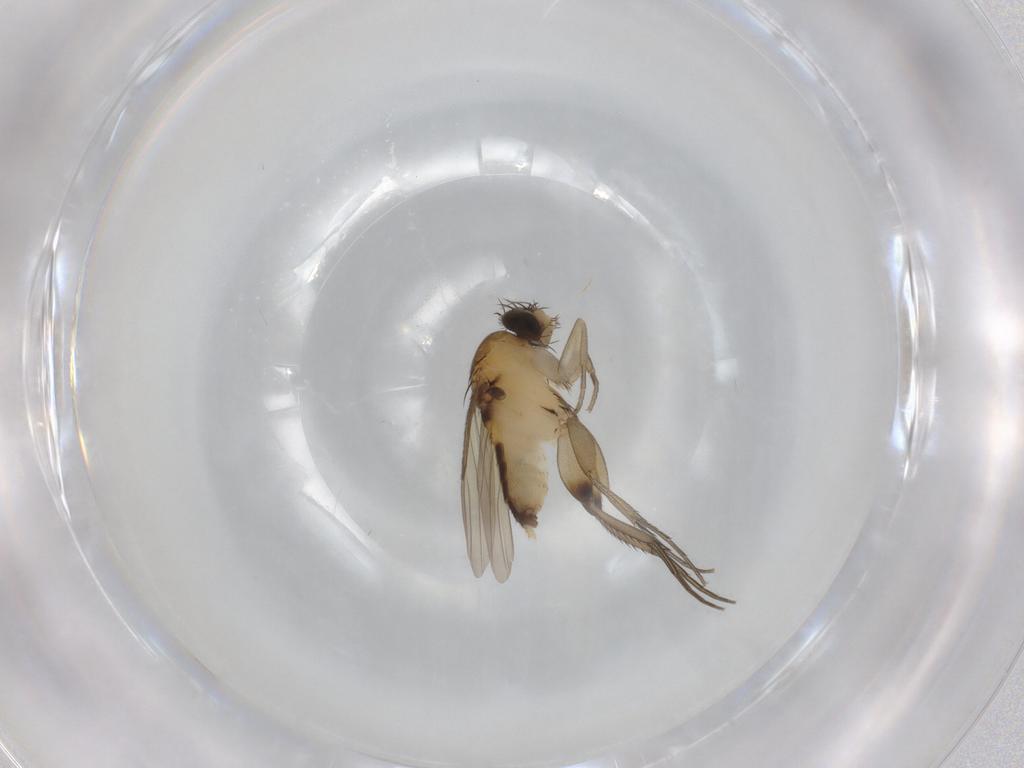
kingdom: Animalia
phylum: Arthropoda
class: Insecta
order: Diptera
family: Phoridae
